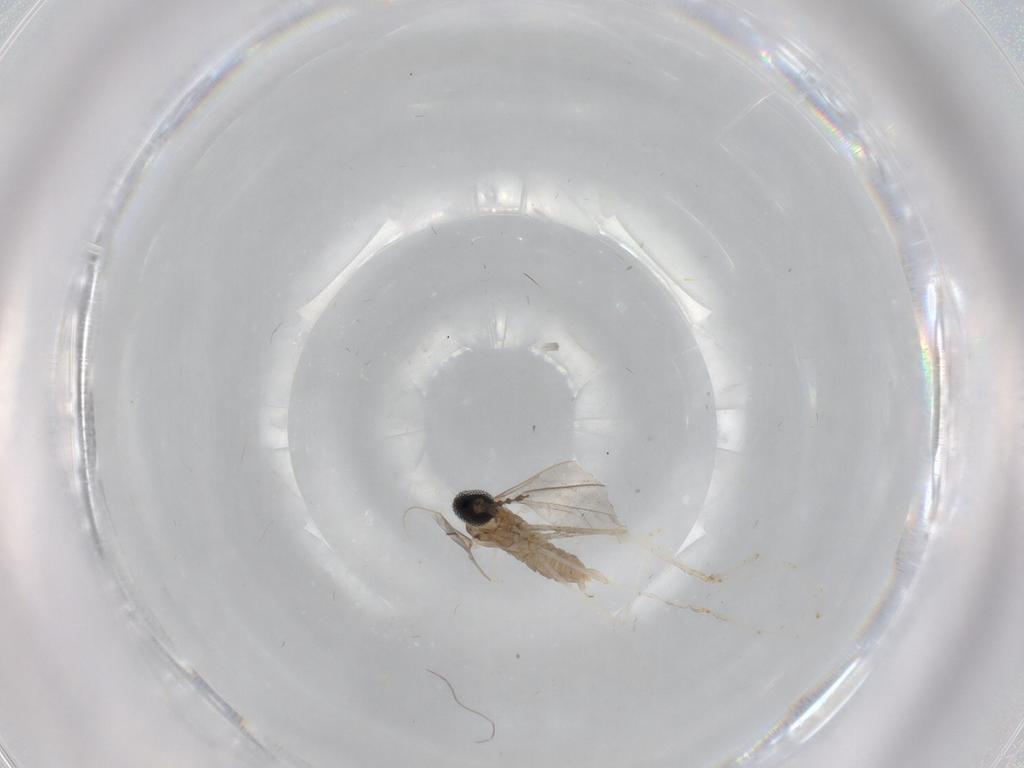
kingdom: Animalia
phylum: Arthropoda
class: Insecta
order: Diptera
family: Cecidomyiidae
